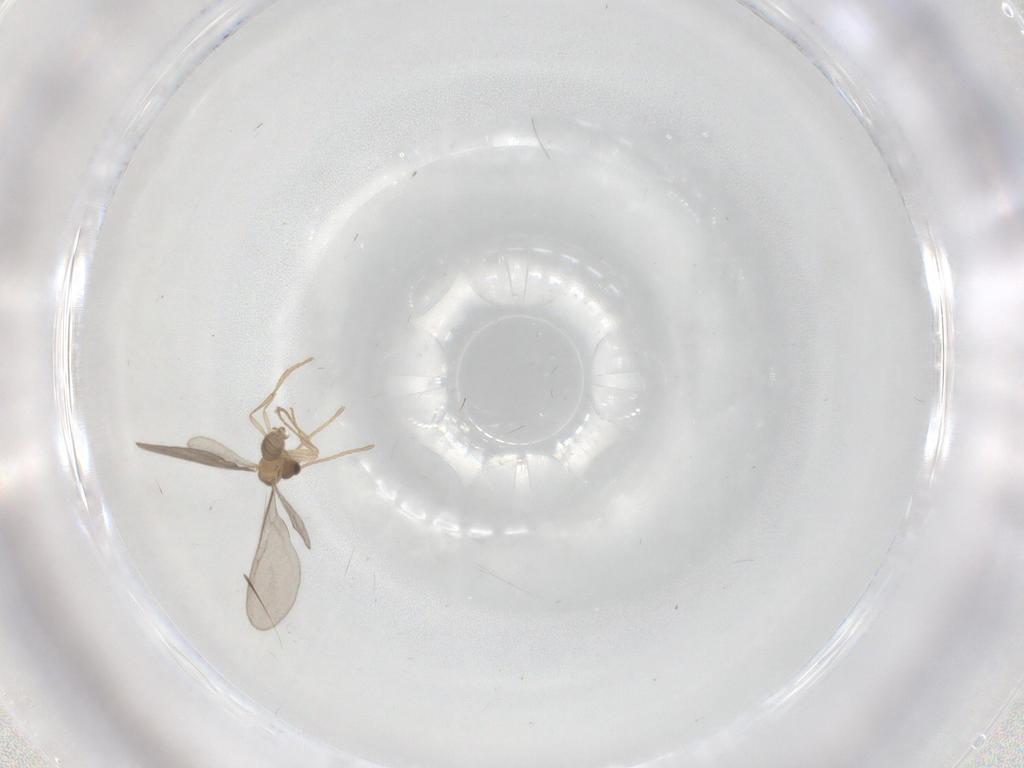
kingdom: Animalia
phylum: Arthropoda
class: Insecta
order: Hymenoptera
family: Formicidae
